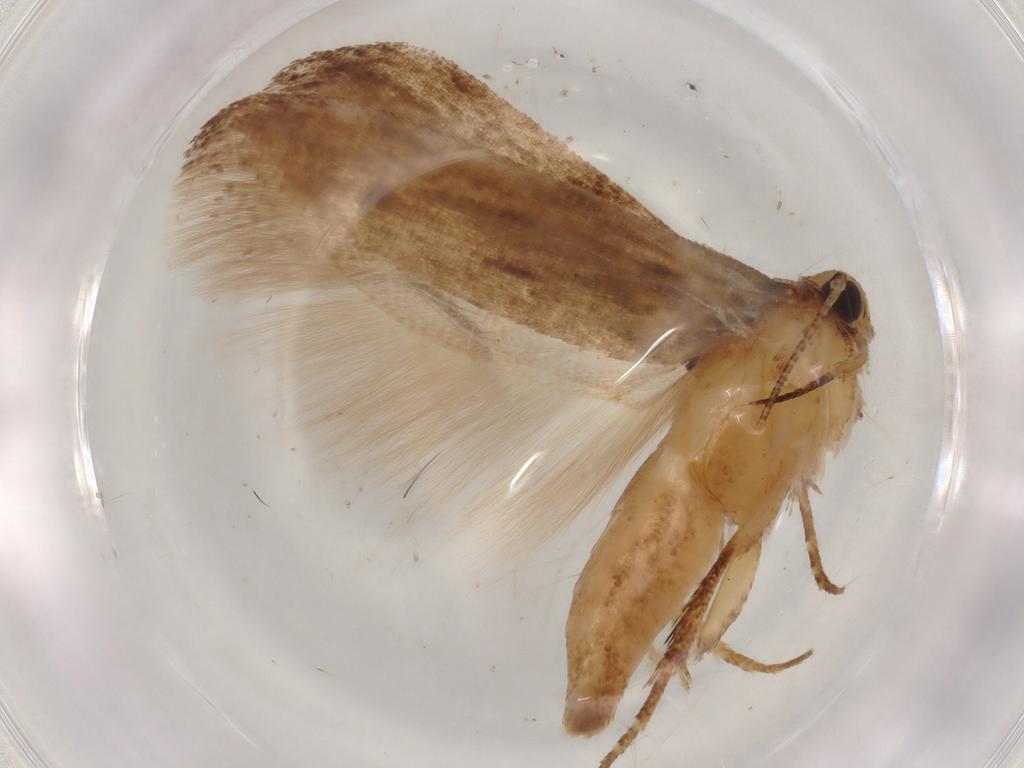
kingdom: Animalia
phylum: Arthropoda
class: Insecta
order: Lepidoptera
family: Gelechiidae
